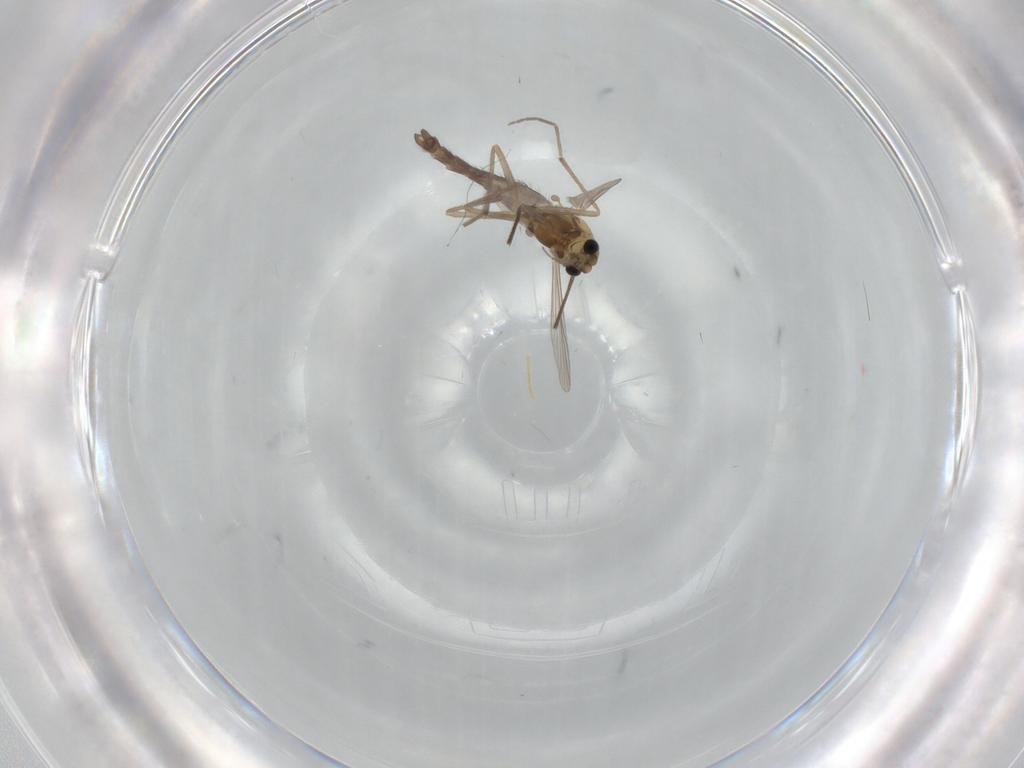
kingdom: Animalia
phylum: Arthropoda
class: Insecta
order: Diptera
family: Chironomidae
